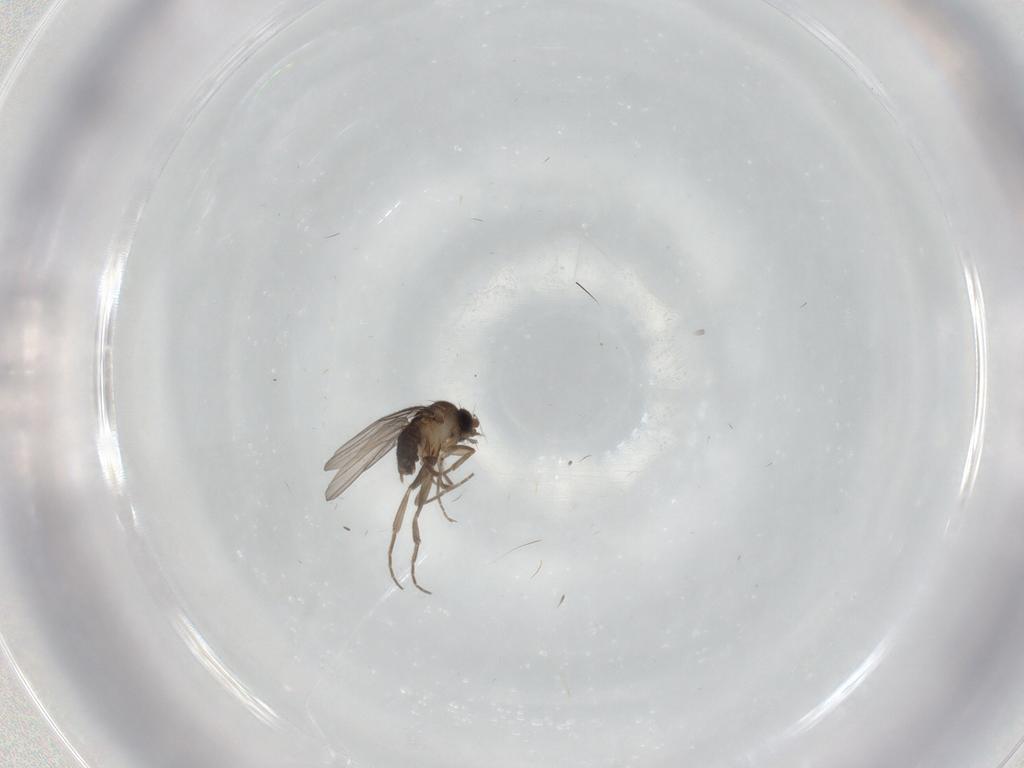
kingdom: Animalia
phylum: Arthropoda
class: Insecta
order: Diptera
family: Phoridae
